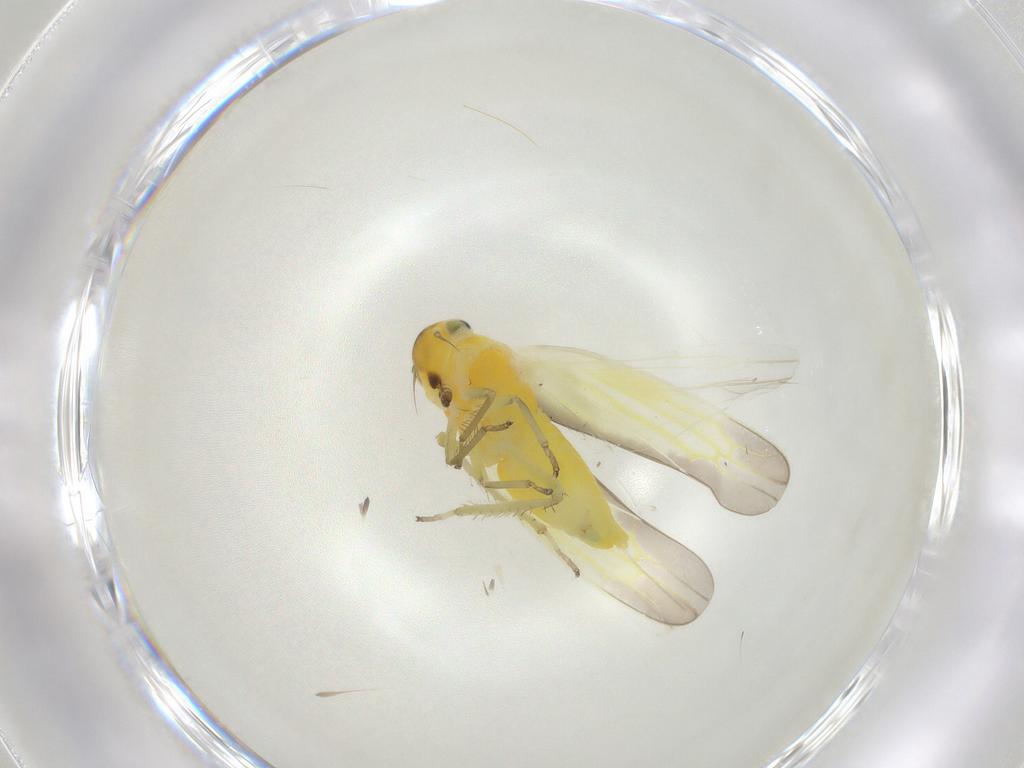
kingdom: Animalia
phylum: Arthropoda
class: Insecta
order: Hemiptera
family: Cicadellidae
